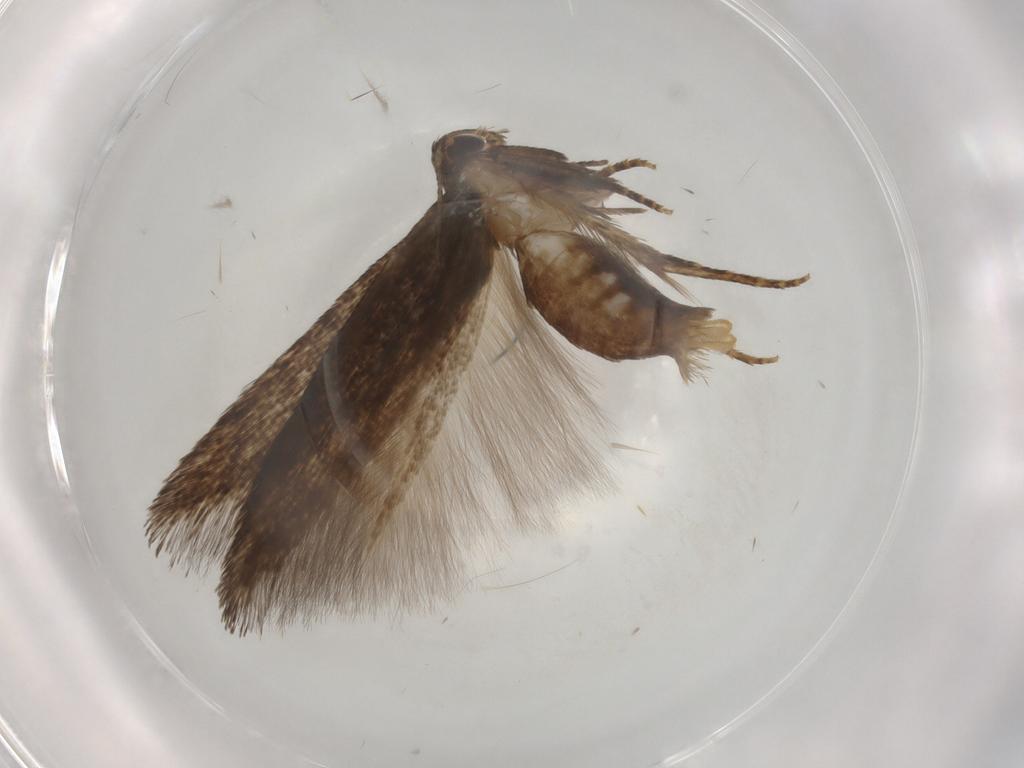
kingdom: Animalia
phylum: Arthropoda
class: Insecta
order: Lepidoptera
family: Cosmopterigidae
